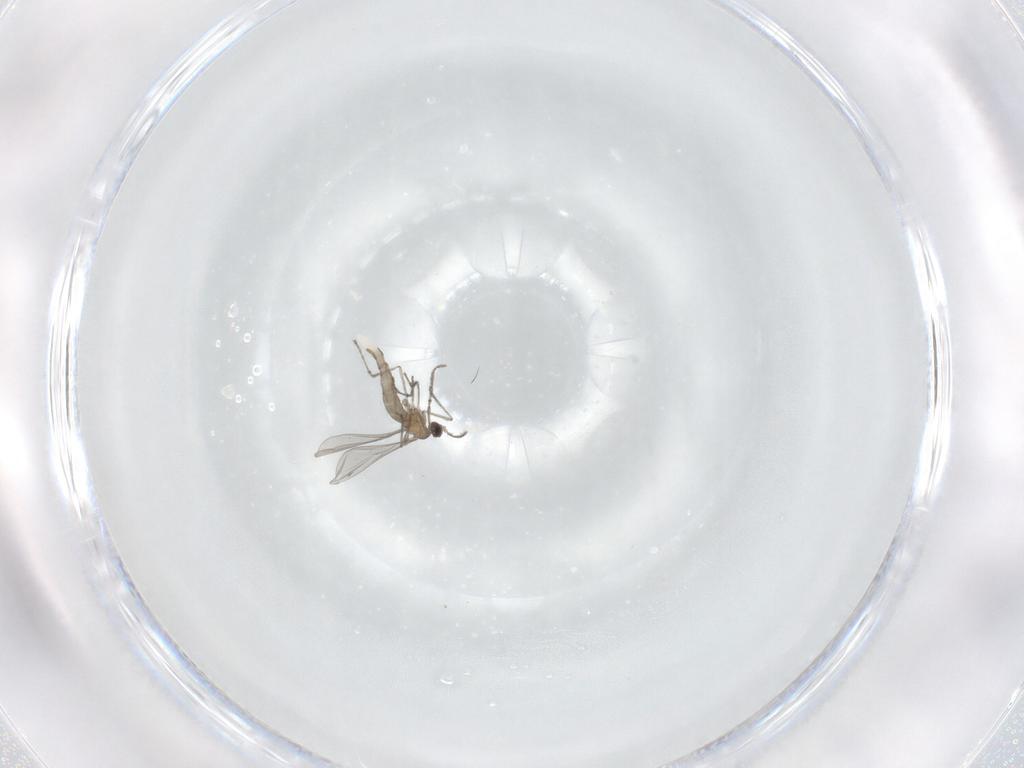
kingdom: Animalia
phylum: Arthropoda
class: Insecta
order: Diptera
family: Cecidomyiidae
